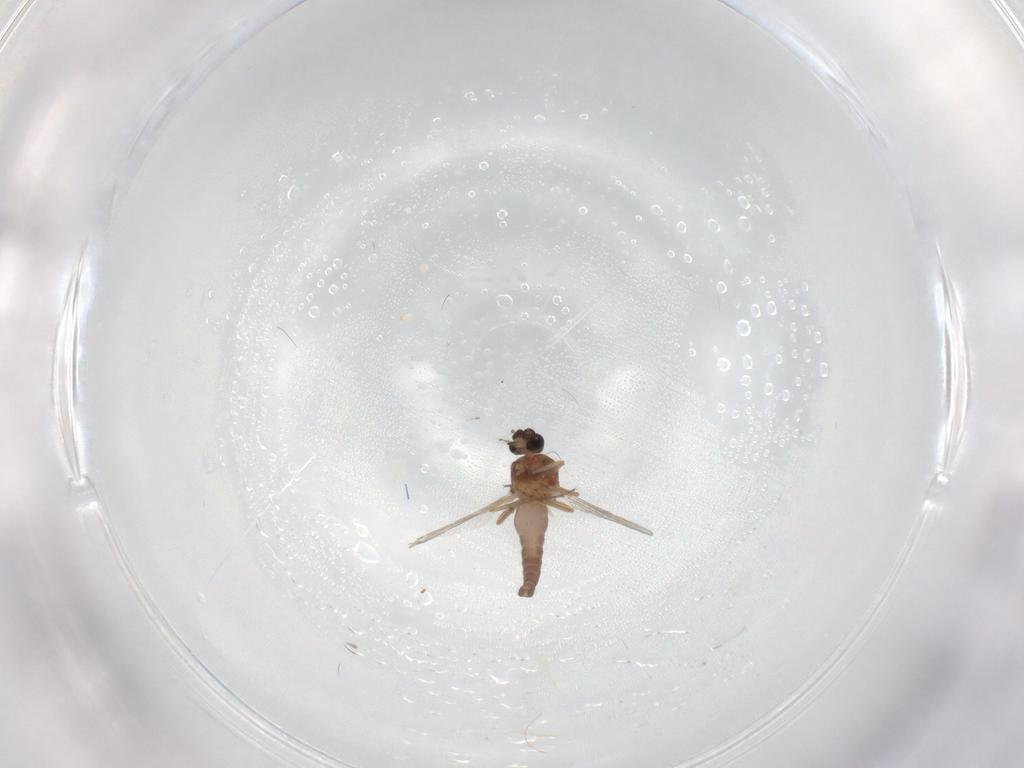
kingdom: Animalia
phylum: Arthropoda
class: Insecta
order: Diptera
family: Ceratopogonidae
